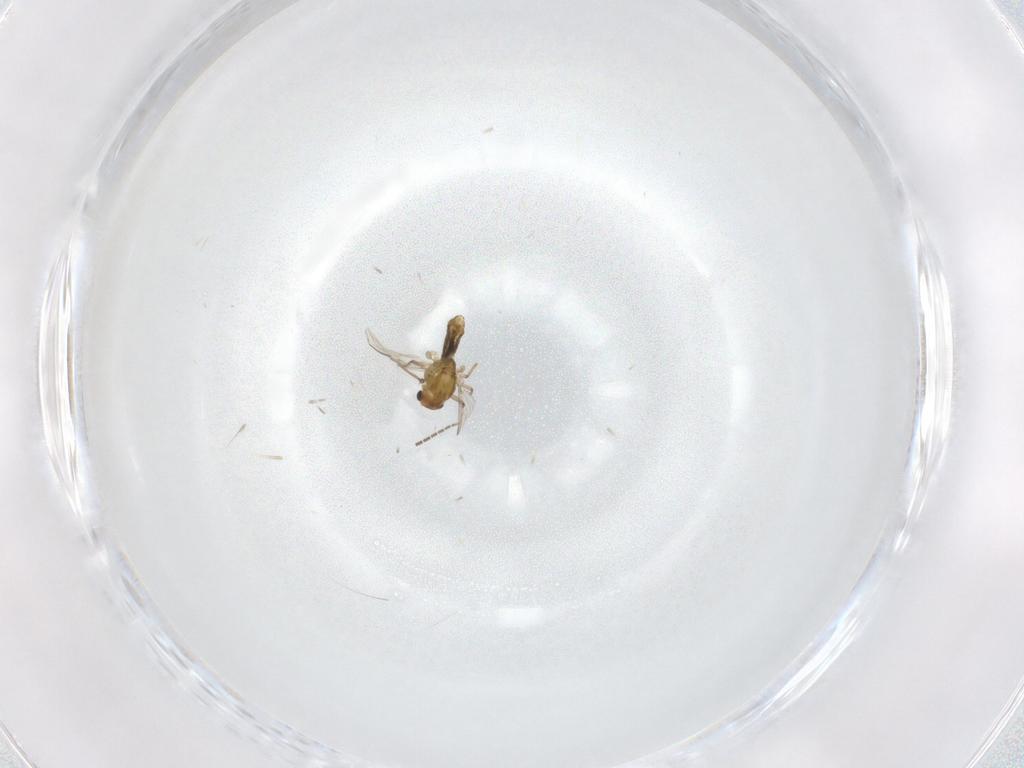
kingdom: Animalia
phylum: Arthropoda
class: Insecta
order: Diptera
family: Chironomidae
